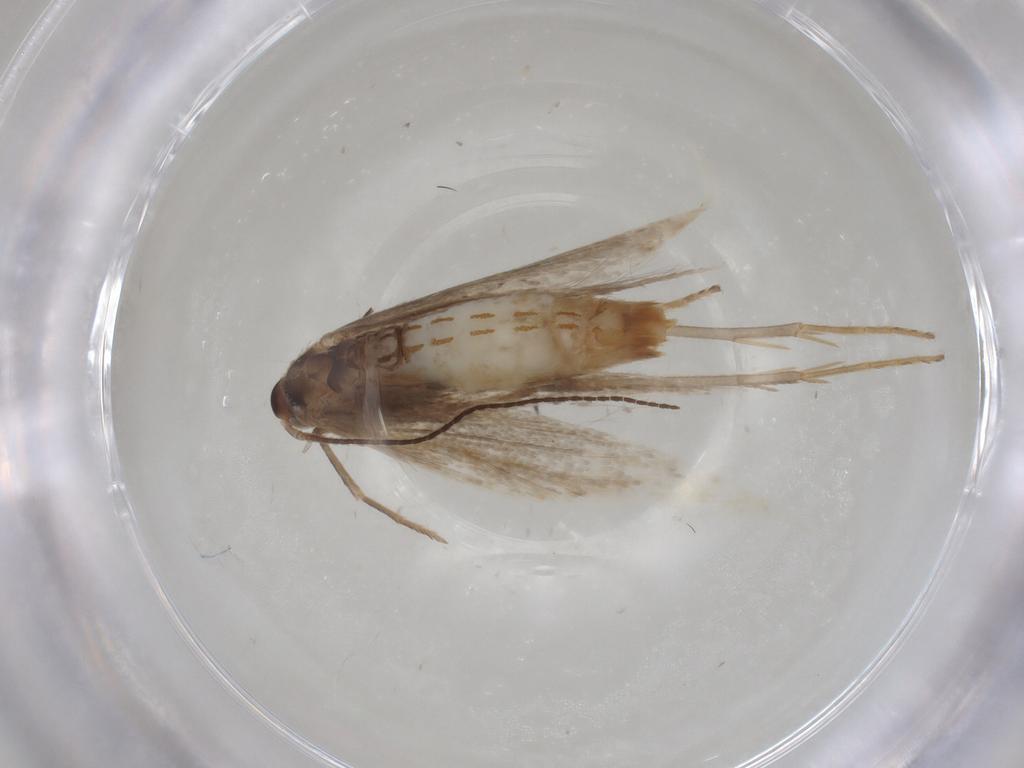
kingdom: Animalia
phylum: Arthropoda
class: Insecta
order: Lepidoptera
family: Coleophoridae
